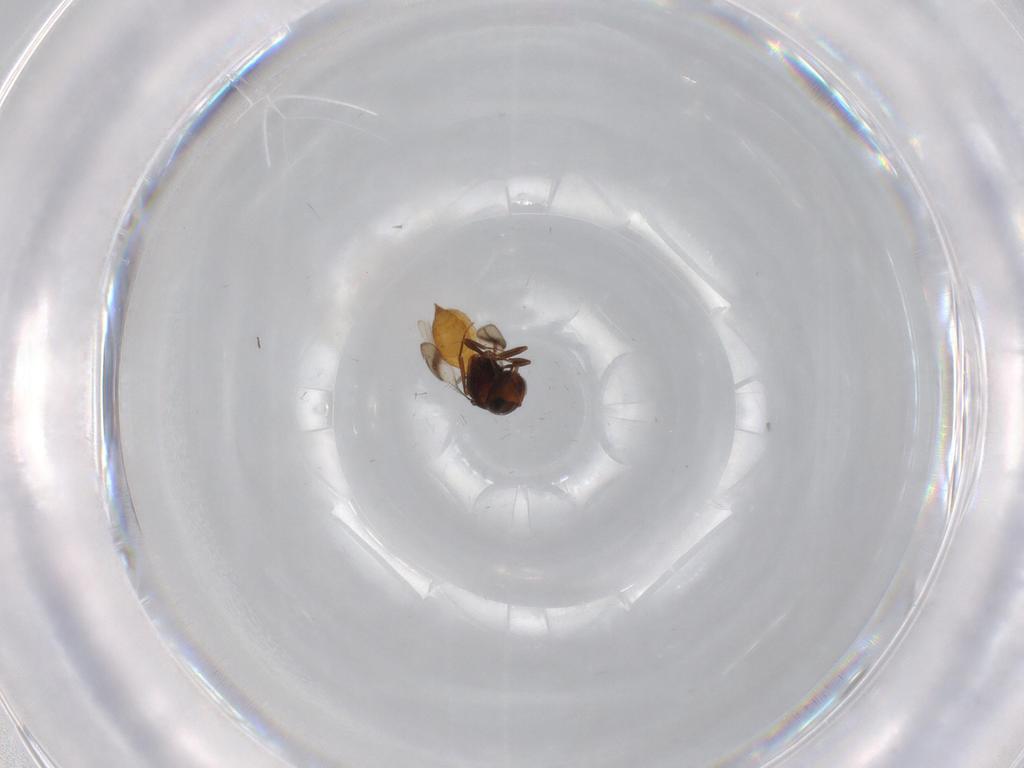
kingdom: Animalia
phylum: Arthropoda
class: Insecta
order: Hymenoptera
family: Scelionidae
